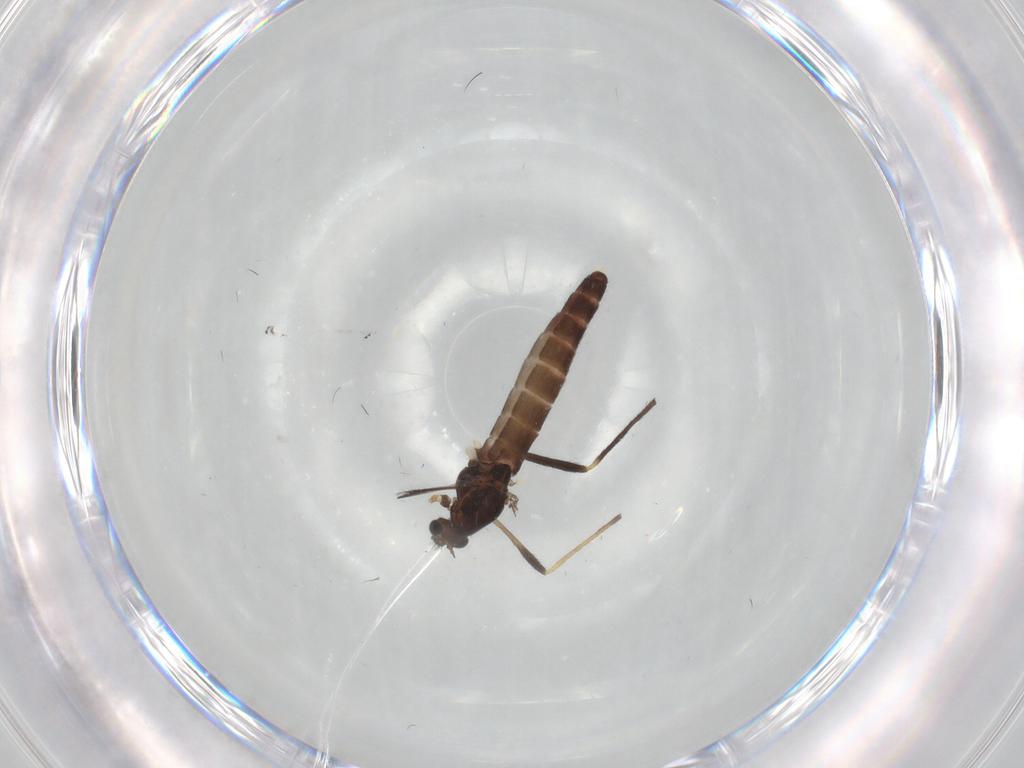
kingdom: Animalia
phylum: Arthropoda
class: Insecta
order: Diptera
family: Chironomidae
